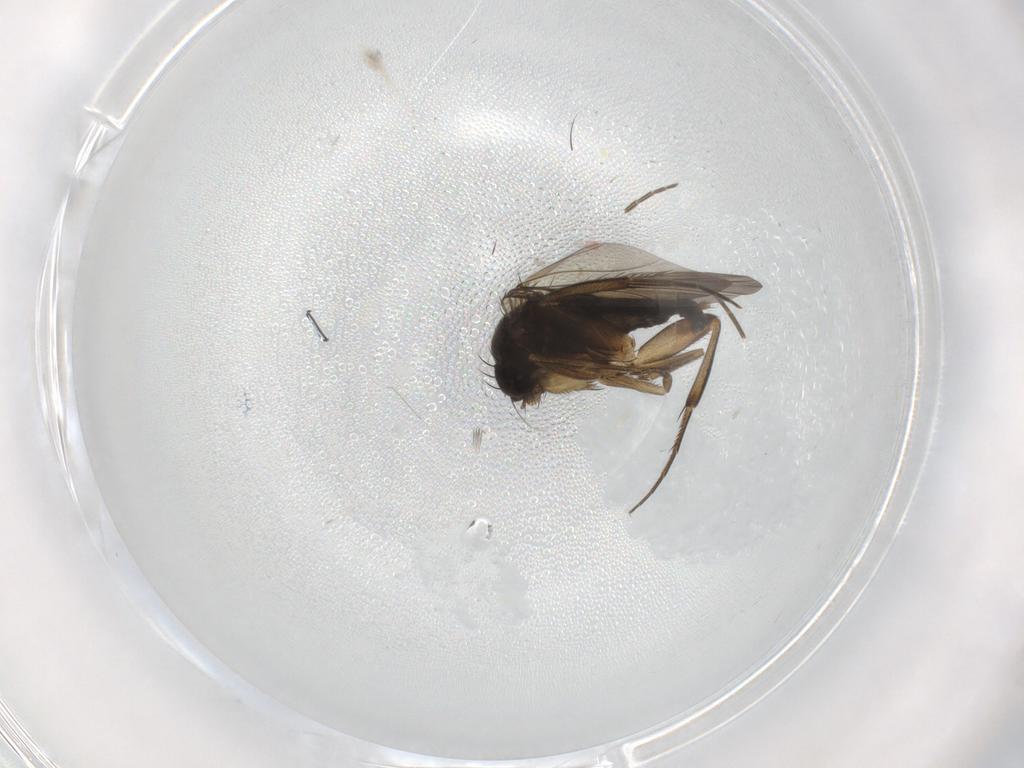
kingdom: Animalia
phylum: Arthropoda
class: Insecta
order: Diptera
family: Phoridae
